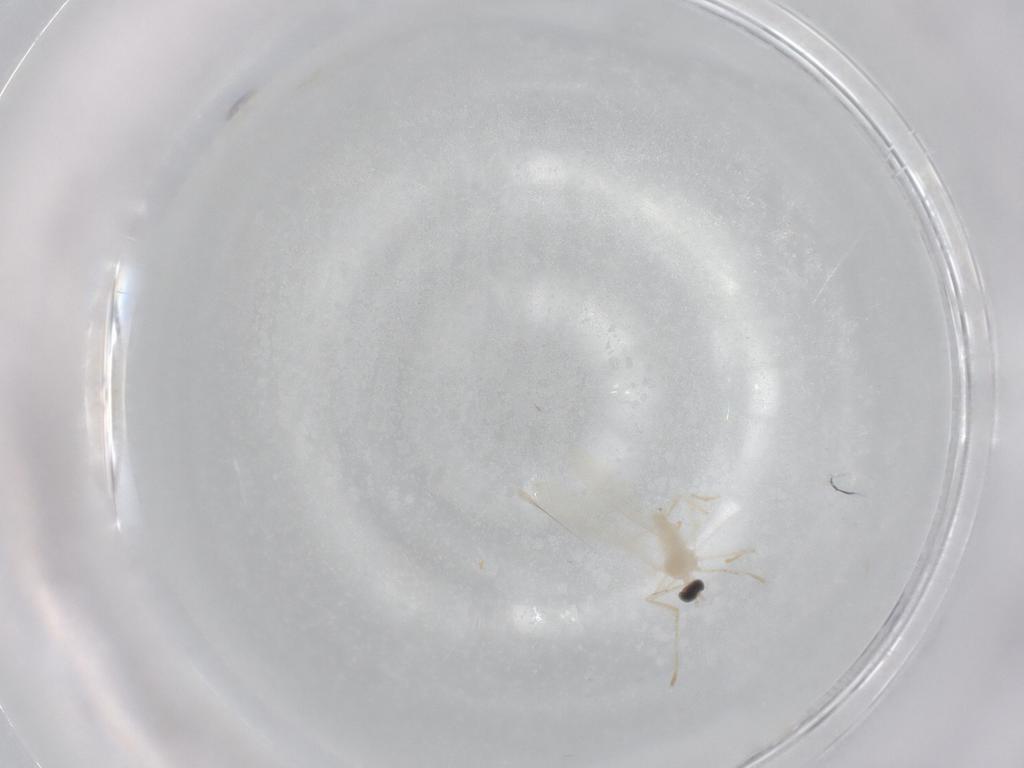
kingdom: Animalia
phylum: Arthropoda
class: Insecta
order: Diptera
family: Cecidomyiidae
